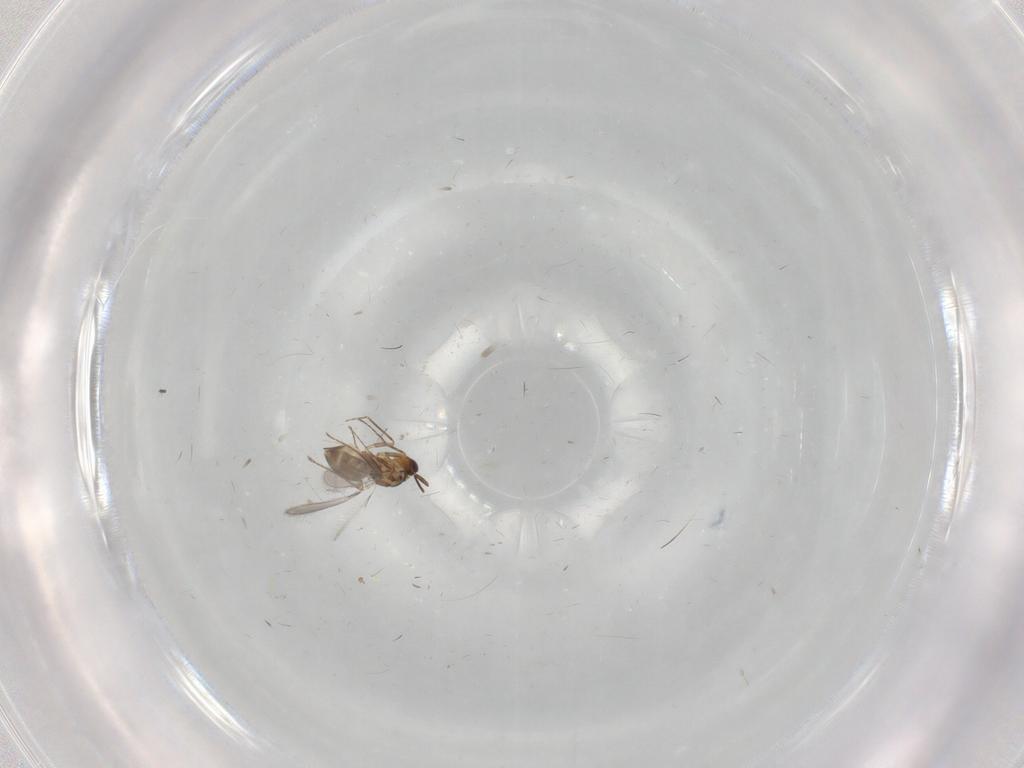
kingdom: Animalia
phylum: Arthropoda
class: Insecta
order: Hymenoptera
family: Mymaridae
